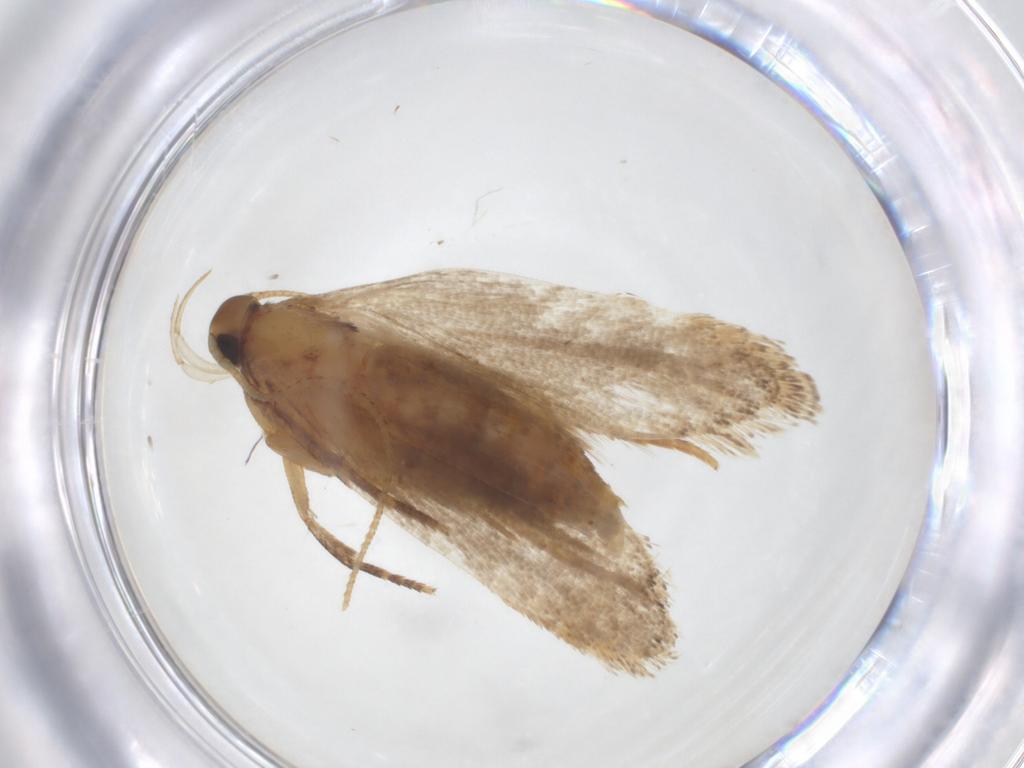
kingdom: Animalia
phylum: Arthropoda
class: Insecta
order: Lepidoptera
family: Oecophoridae
